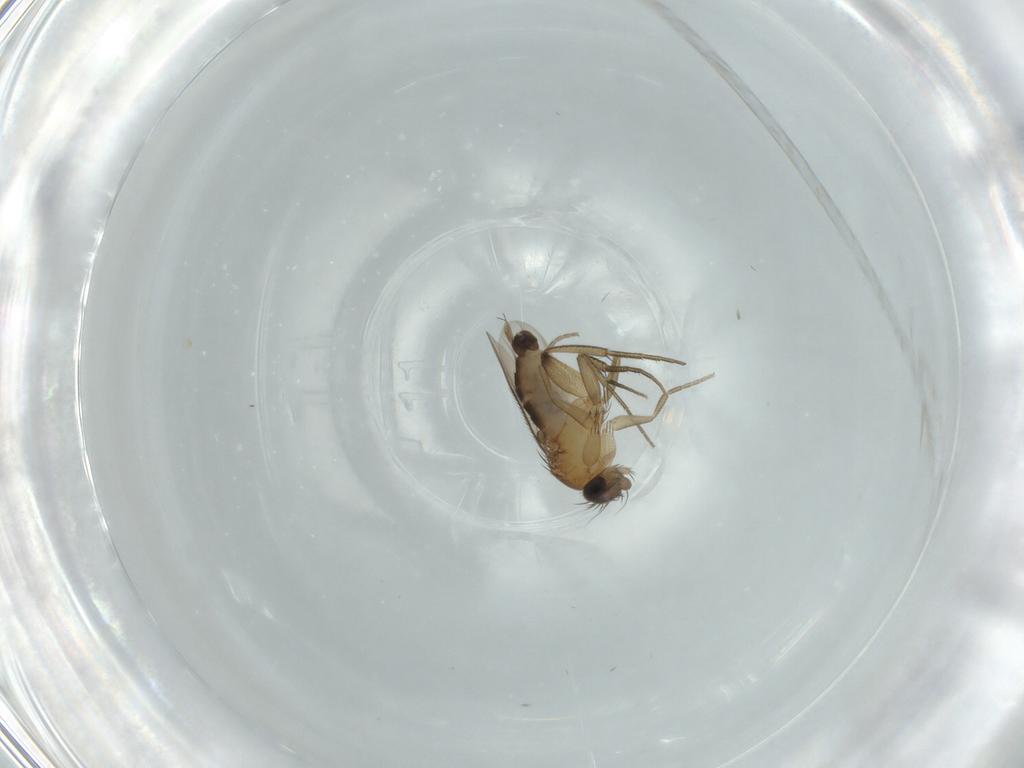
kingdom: Animalia
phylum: Arthropoda
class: Insecta
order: Diptera
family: Phoridae
